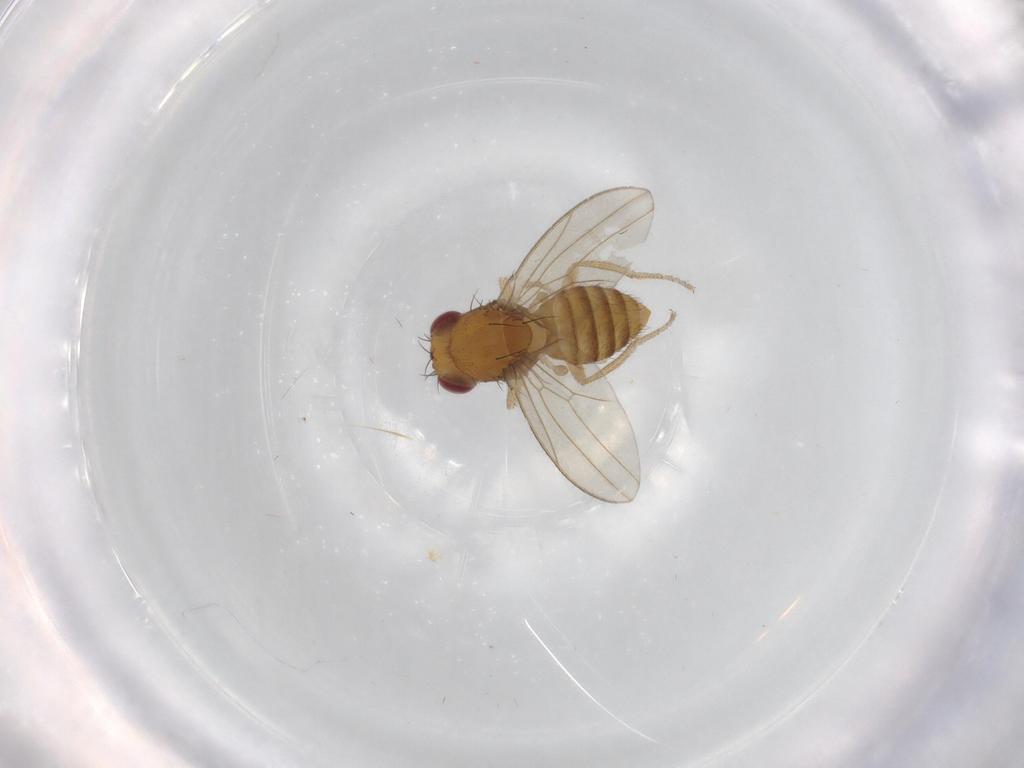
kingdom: Animalia
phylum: Arthropoda
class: Insecta
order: Diptera
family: Drosophilidae
